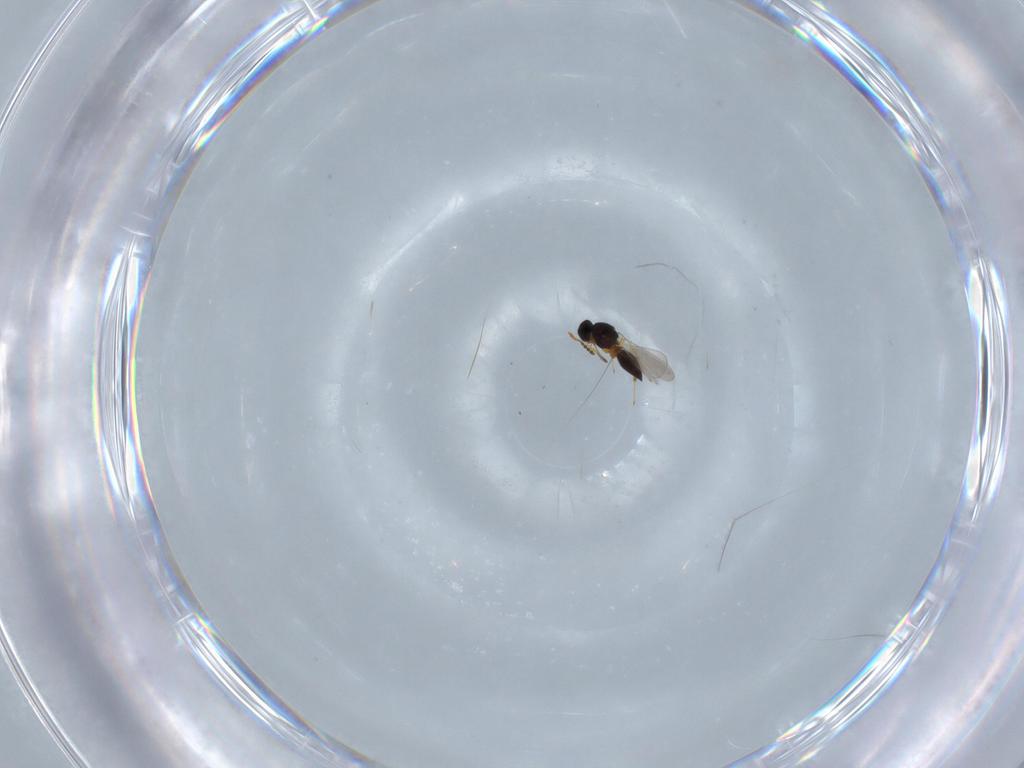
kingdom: Animalia
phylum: Arthropoda
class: Insecta
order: Hymenoptera
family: Platygastridae
